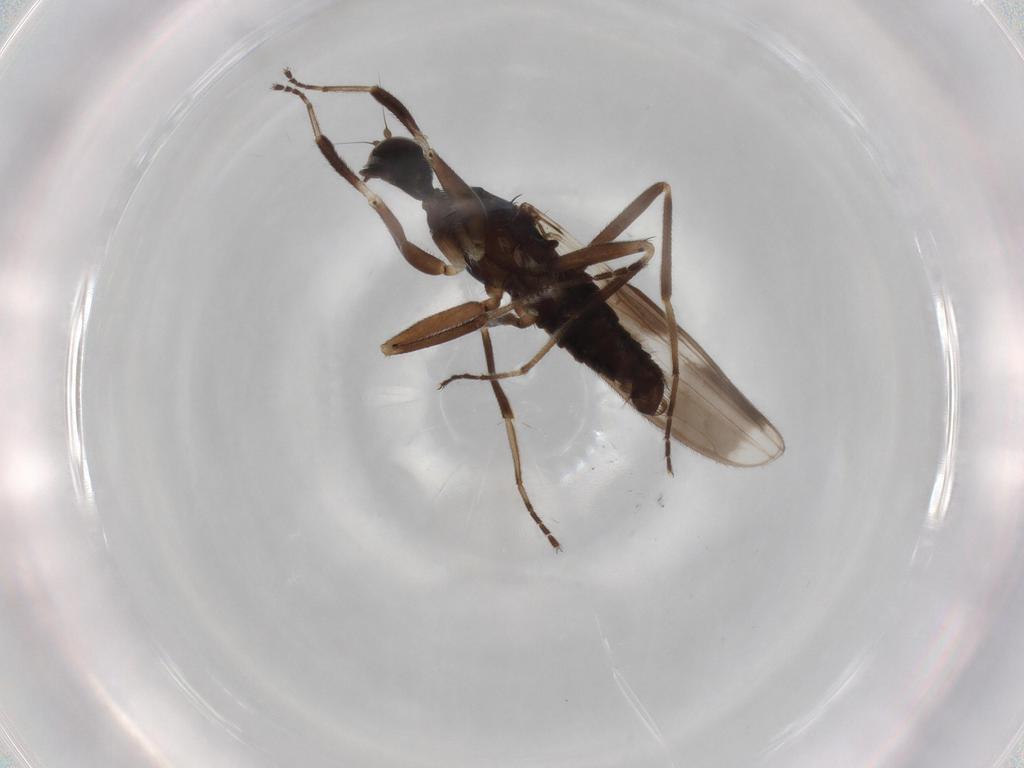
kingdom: Animalia
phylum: Arthropoda
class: Insecta
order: Diptera
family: Hybotidae
